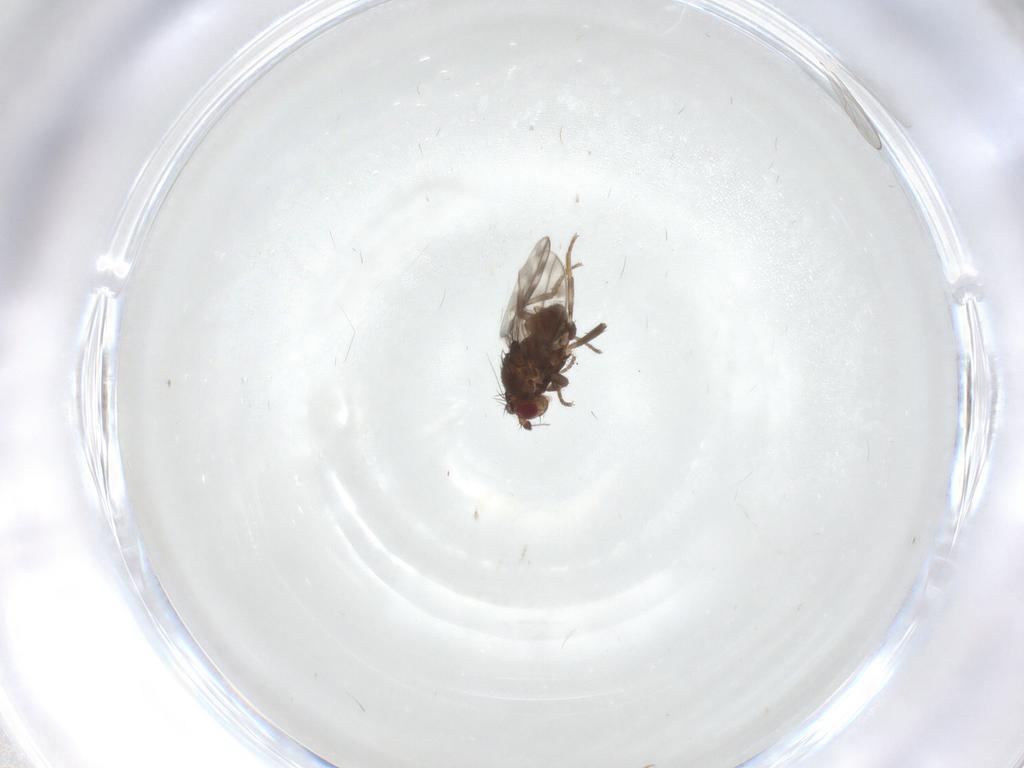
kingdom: Animalia
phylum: Arthropoda
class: Insecta
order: Diptera
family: Sphaeroceridae
